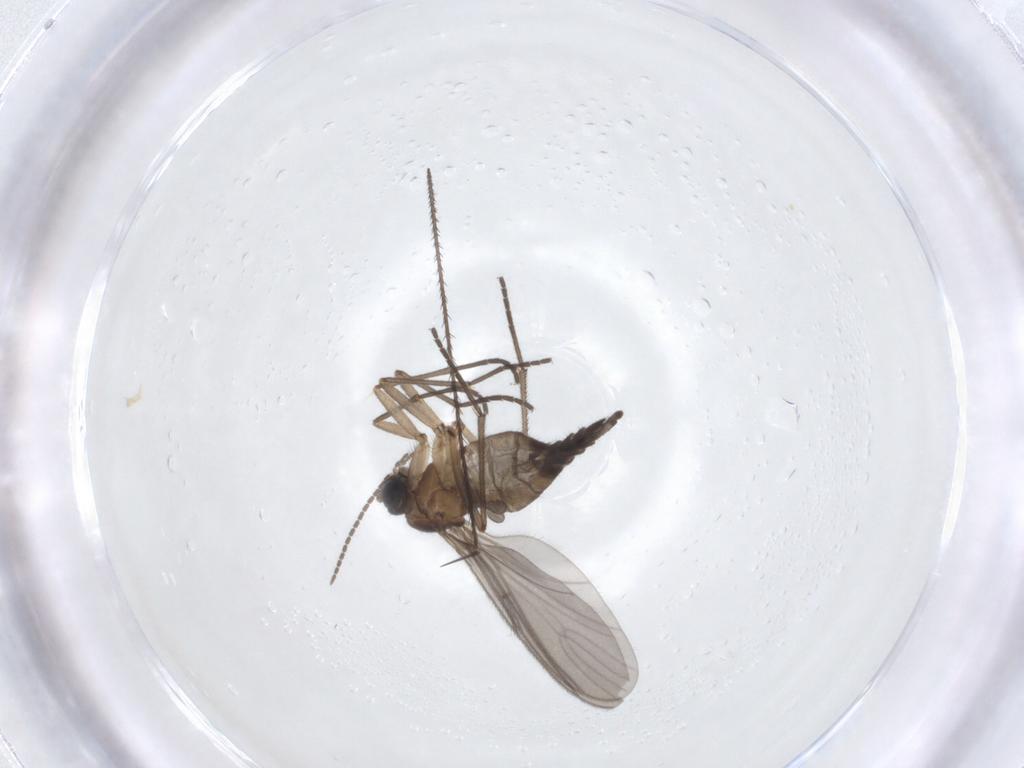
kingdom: Animalia
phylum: Arthropoda
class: Insecta
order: Diptera
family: Sciaridae
